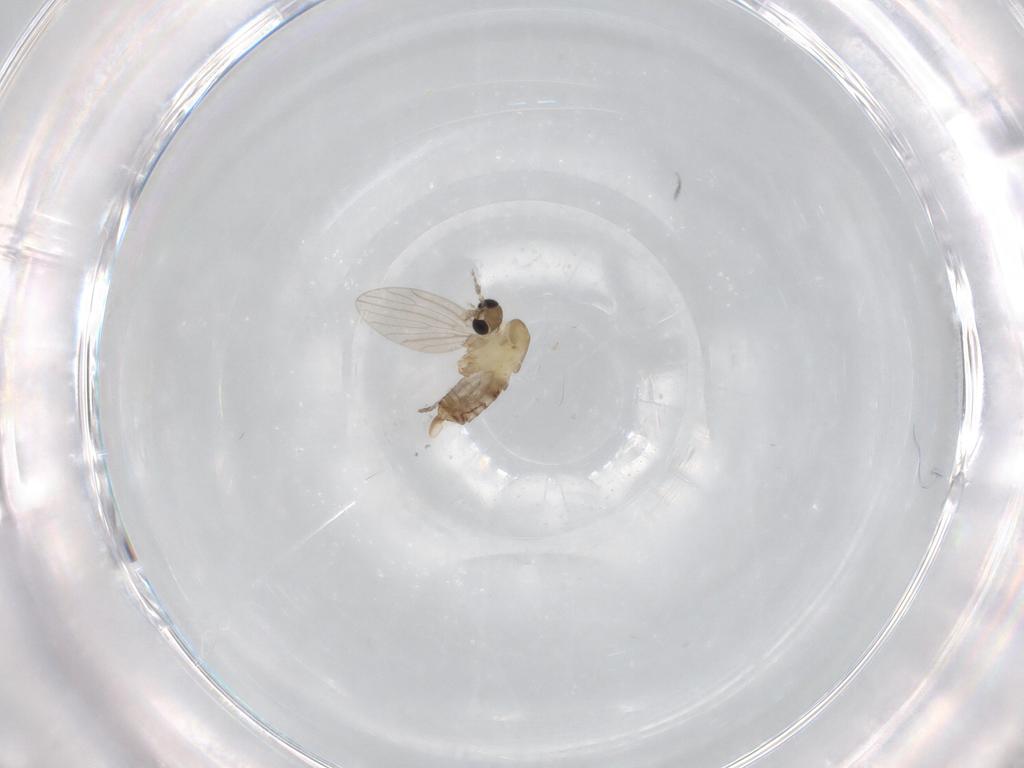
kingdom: Animalia
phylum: Arthropoda
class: Insecta
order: Diptera
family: Psychodidae
